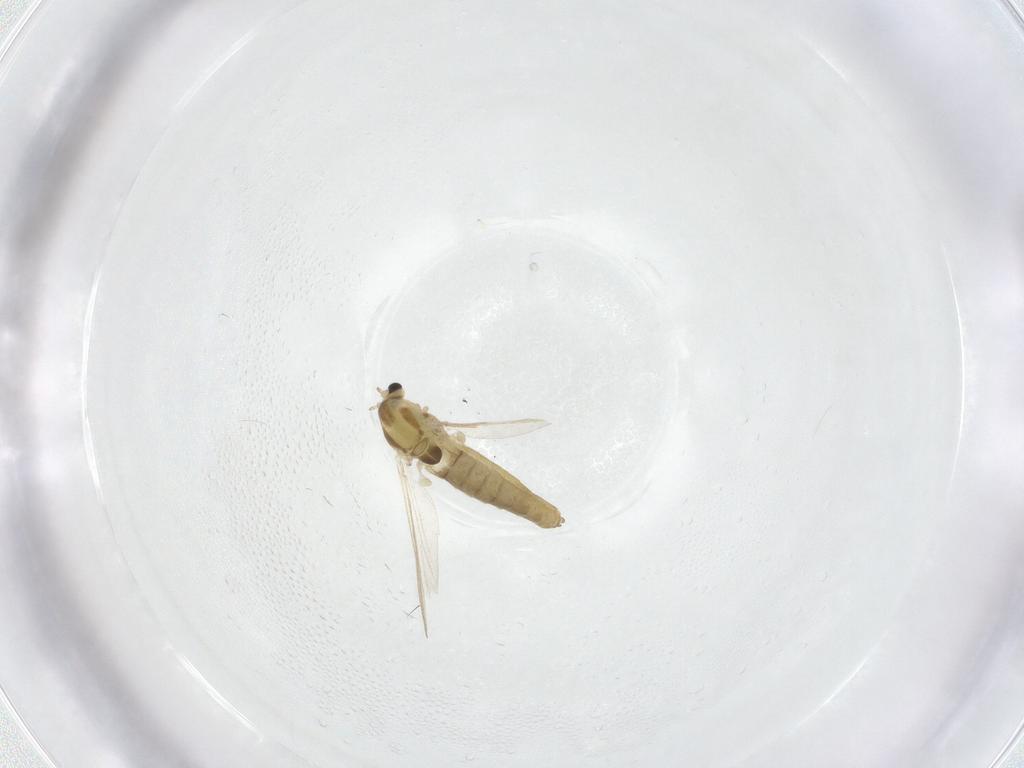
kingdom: Animalia
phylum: Arthropoda
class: Insecta
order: Diptera
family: Chironomidae
